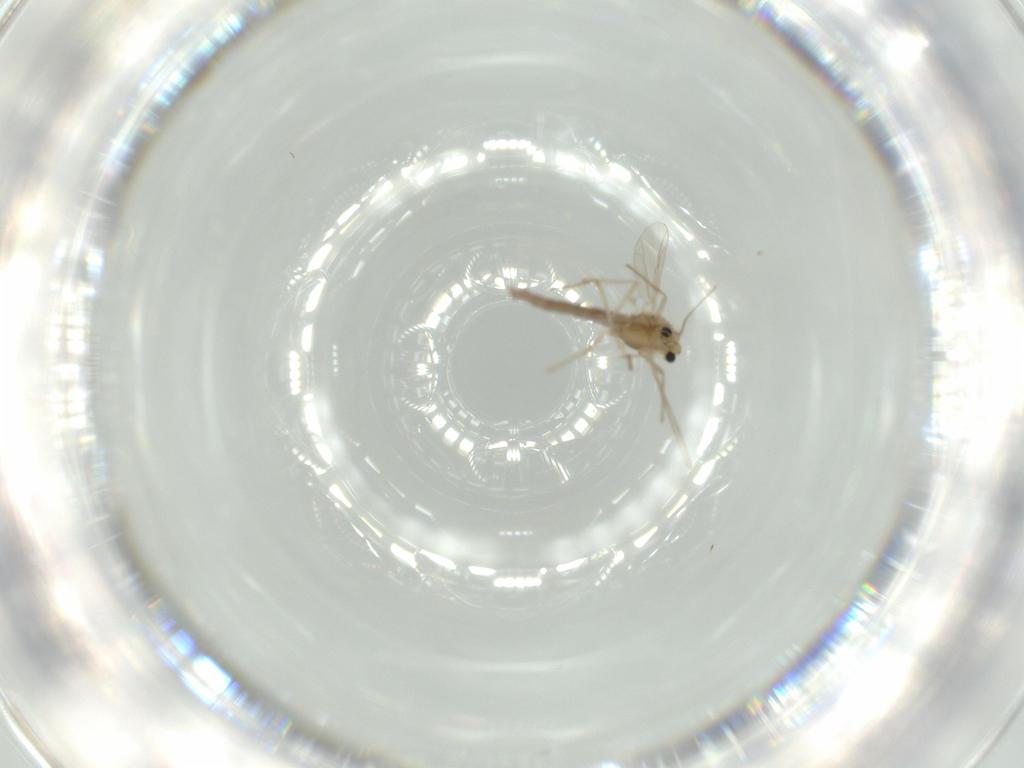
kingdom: Animalia
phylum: Arthropoda
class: Insecta
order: Diptera
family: Chironomidae
